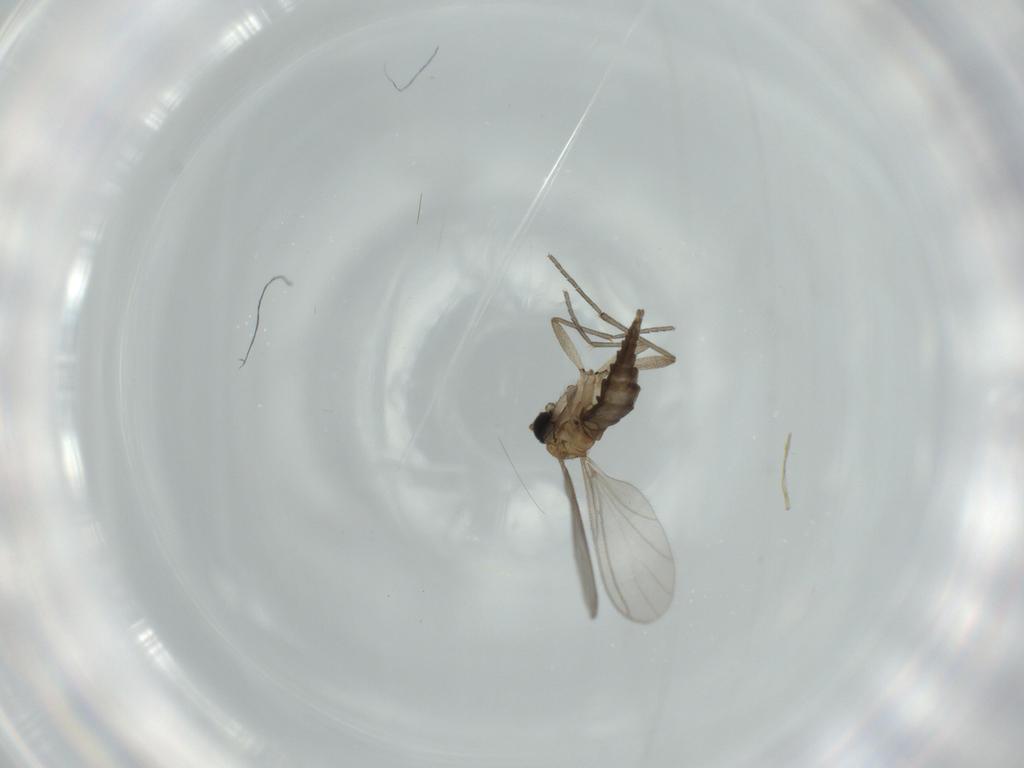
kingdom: Animalia
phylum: Arthropoda
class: Insecta
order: Diptera
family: Sciaridae
